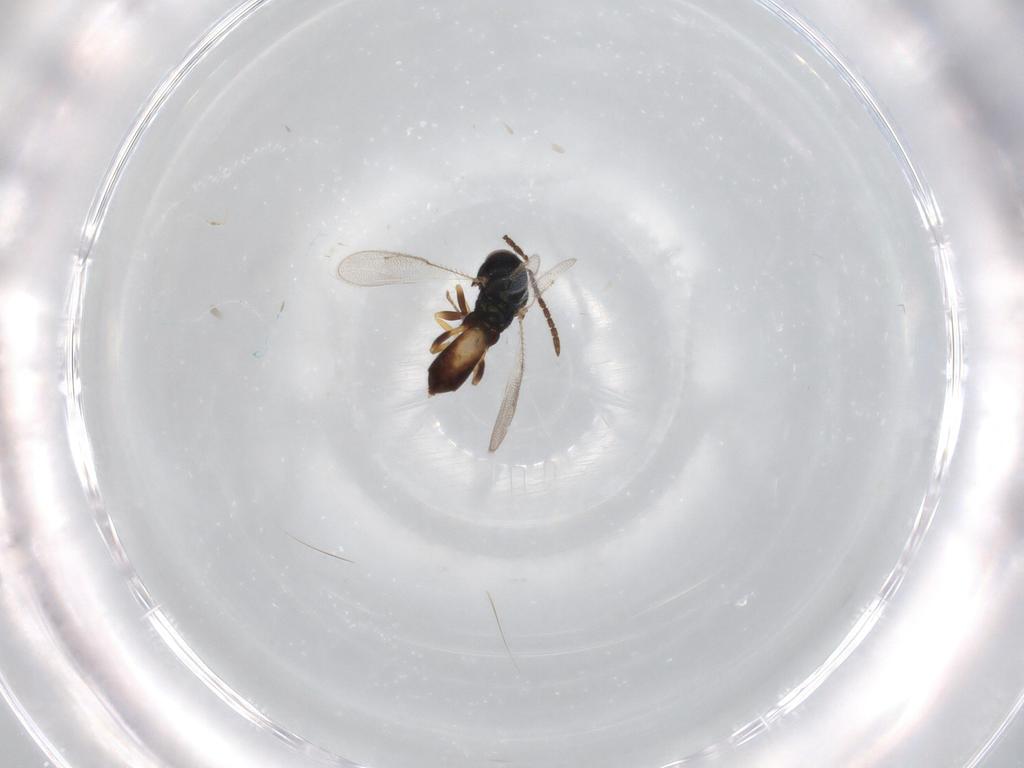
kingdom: Animalia
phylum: Arthropoda
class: Insecta
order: Hymenoptera
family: Pteromalidae
